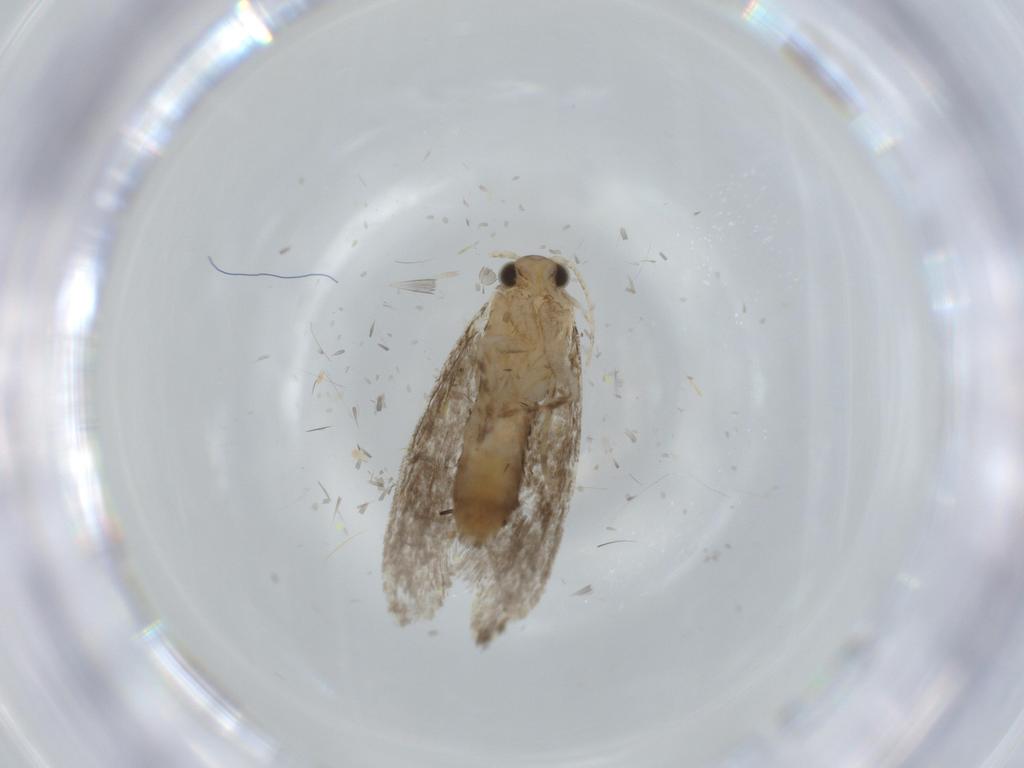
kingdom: Animalia
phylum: Arthropoda
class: Insecta
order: Lepidoptera
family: Tineidae
